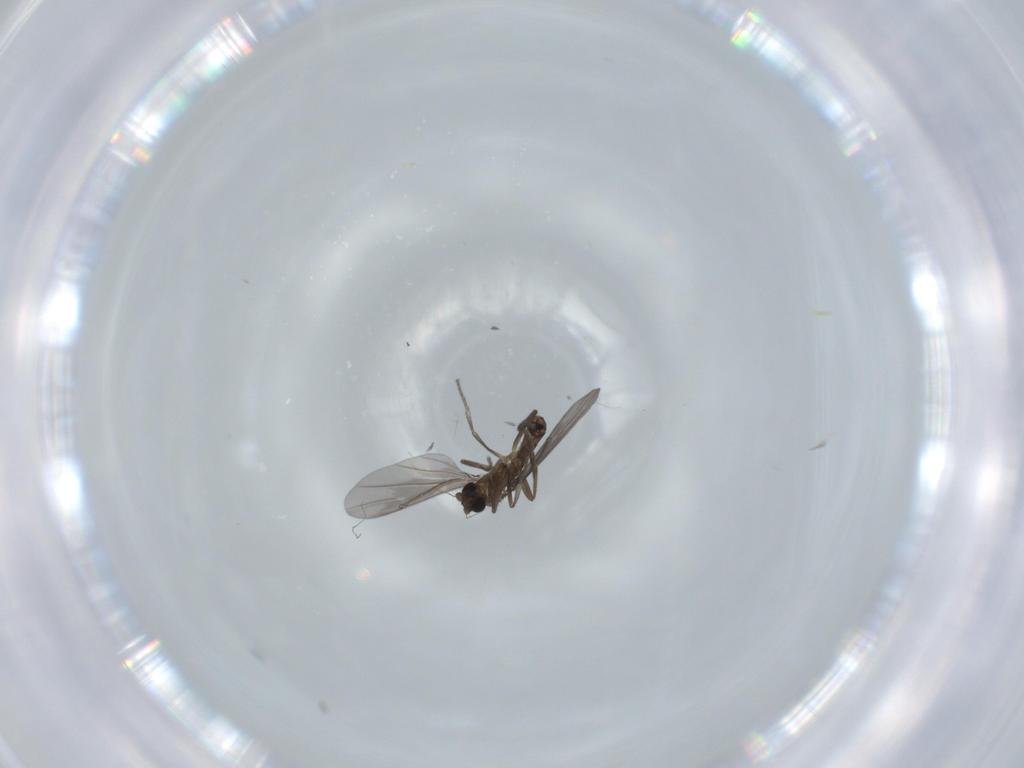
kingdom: Animalia
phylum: Arthropoda
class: Insecta
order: Diptera
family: Phoridae
